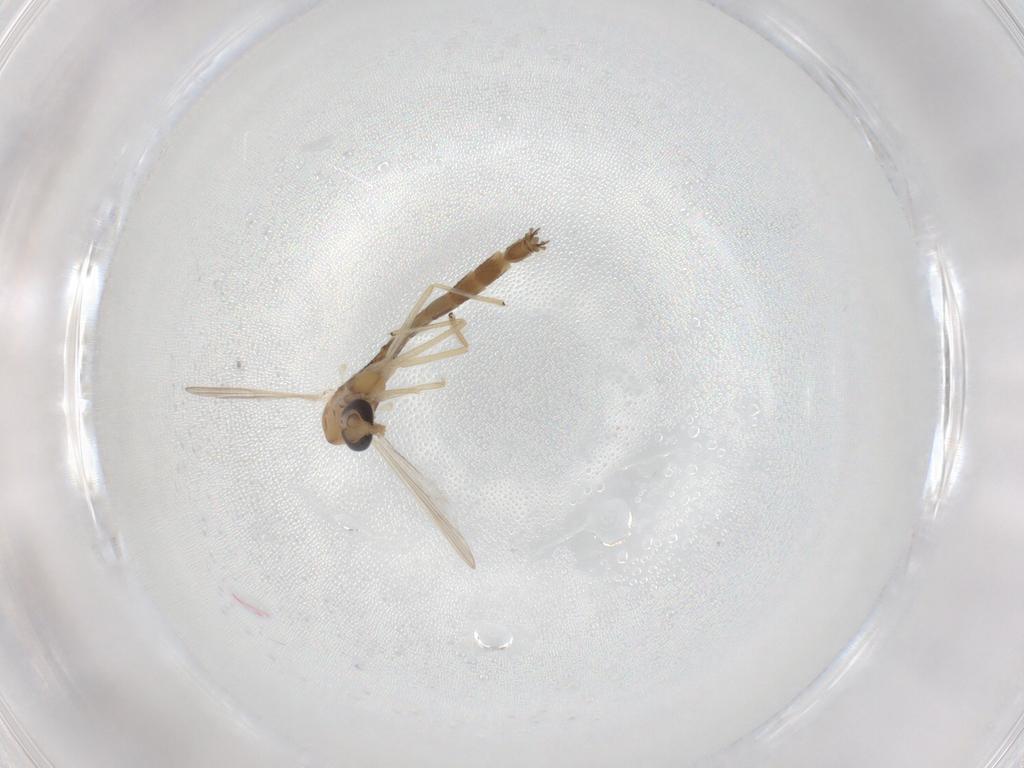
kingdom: Animalia
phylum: Arthropoda
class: Insecta
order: Diptera
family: Chironomidae
